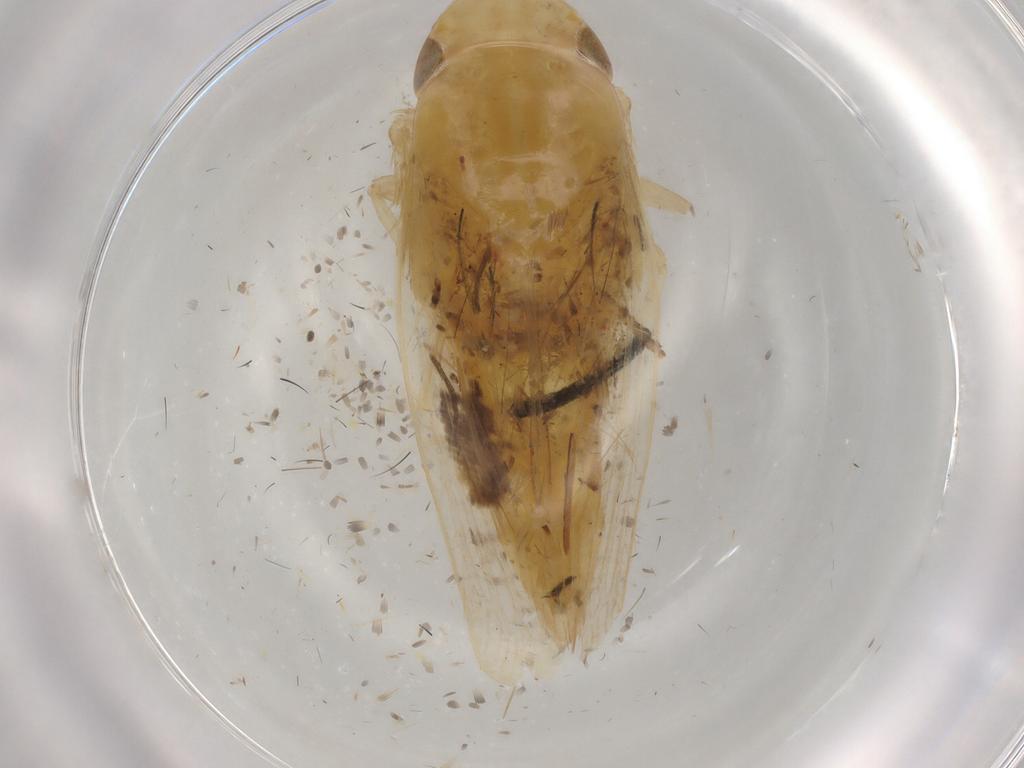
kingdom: Animalia
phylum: Arthropoda
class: Insecta
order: Hemiptera
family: Cicadellidae
